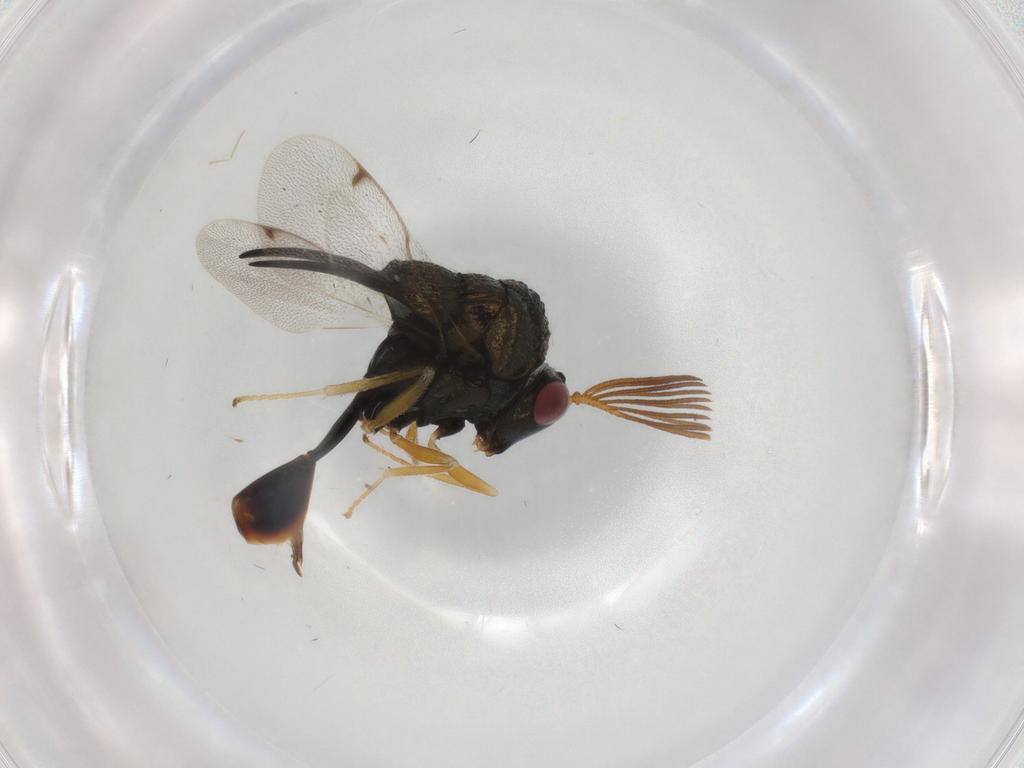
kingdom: Animalia
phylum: Arthropoda
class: Insecta
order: Hymenoptera
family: Eucharitidae
